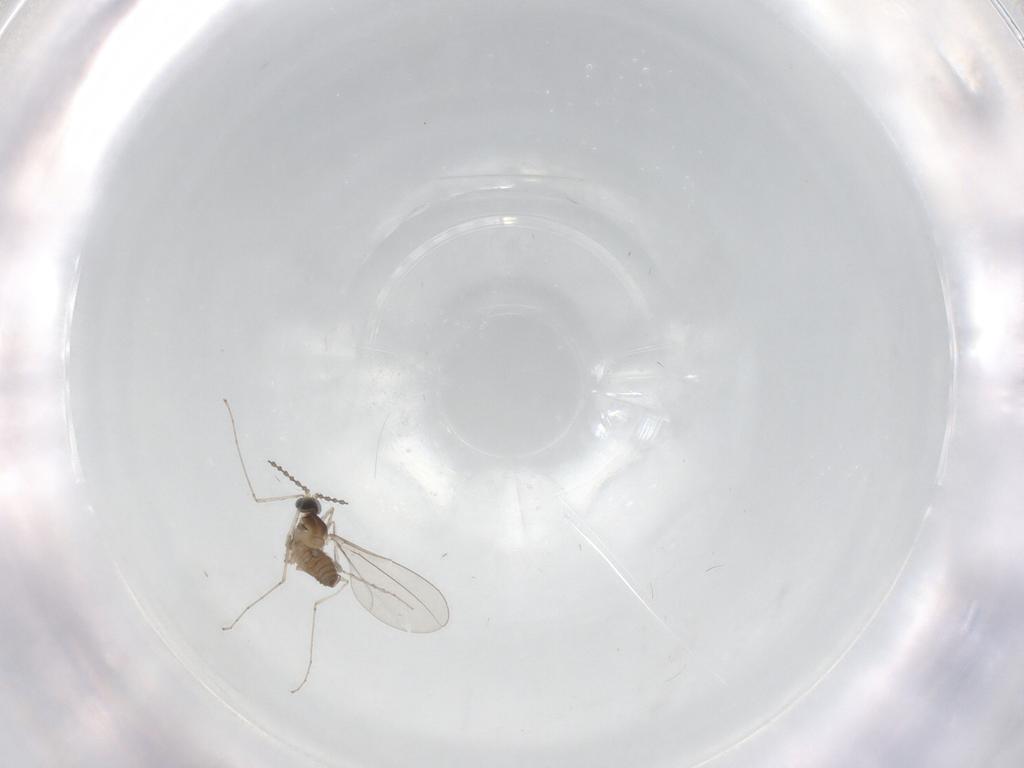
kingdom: Animalia
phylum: Arthropoda
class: Insecta
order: Diptera
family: Cecidomyiidae
